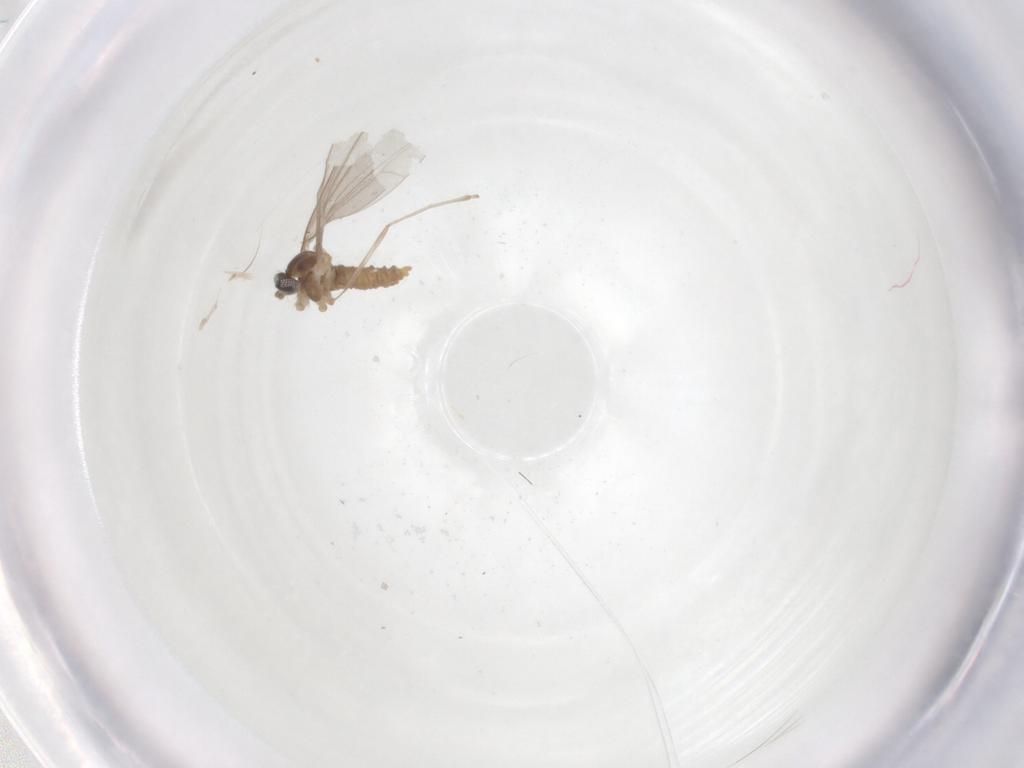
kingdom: Animalia
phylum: Arthropoda
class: Insecta
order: Diptera
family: Cecidomyiidae
